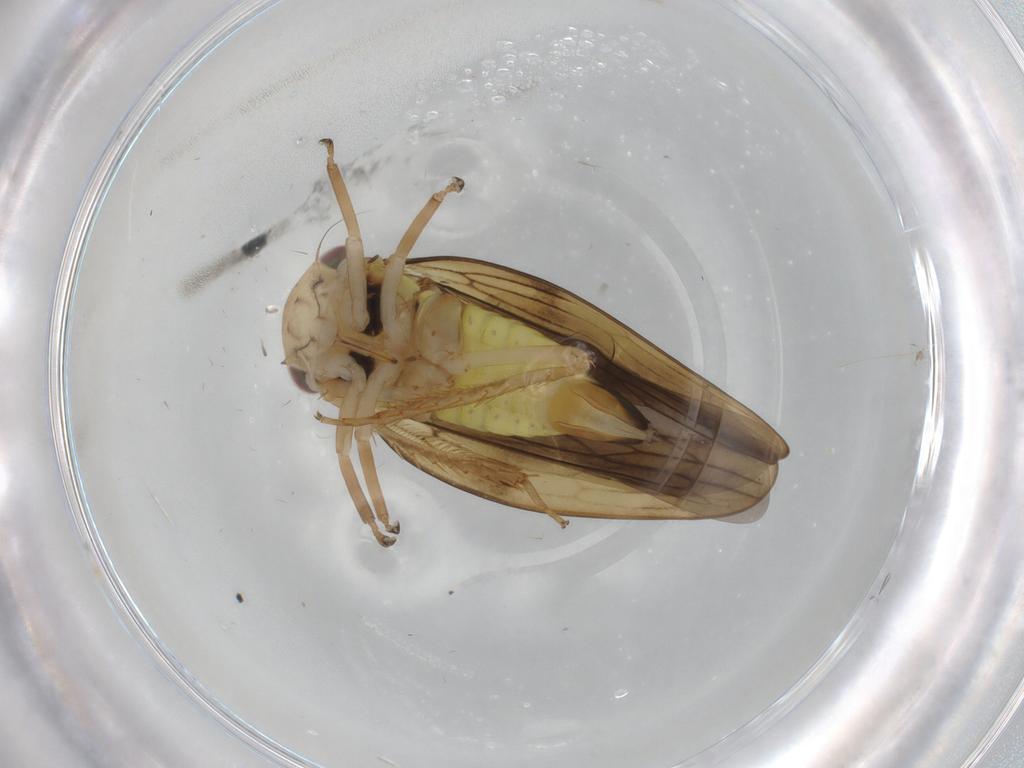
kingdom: Animalia
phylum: Arthropoda
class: Insecta
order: Hemiptera
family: Cicadellidae
